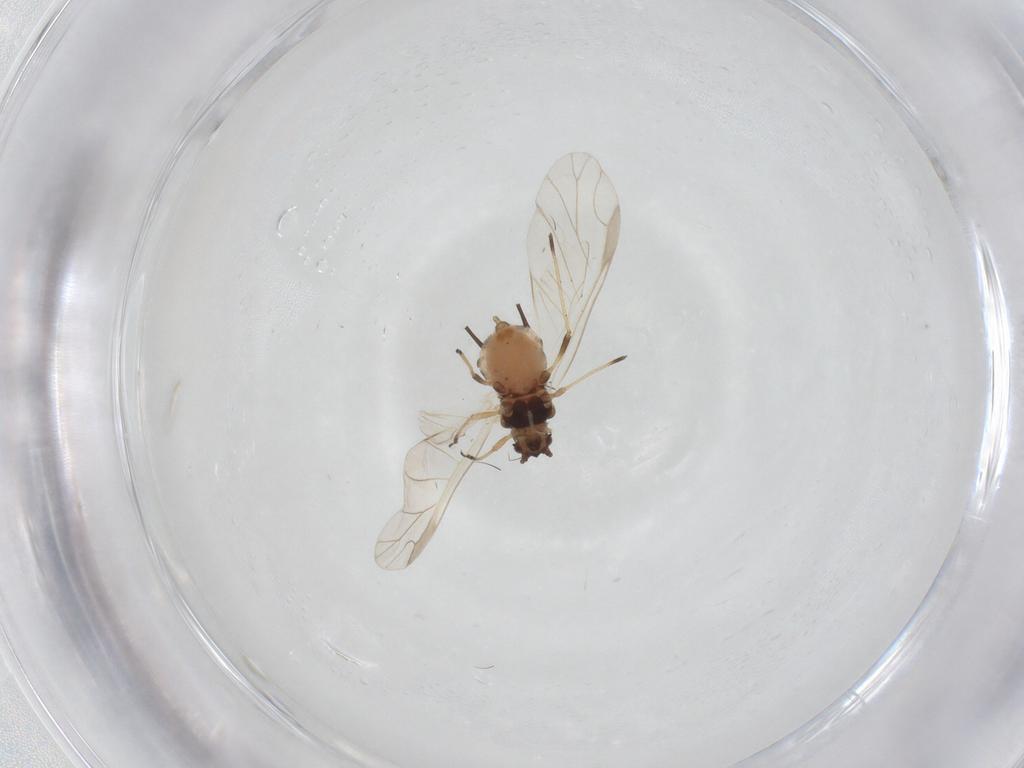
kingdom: Animalia
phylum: Arthropoda
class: Insecta
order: Hemiptera
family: Aphididae
